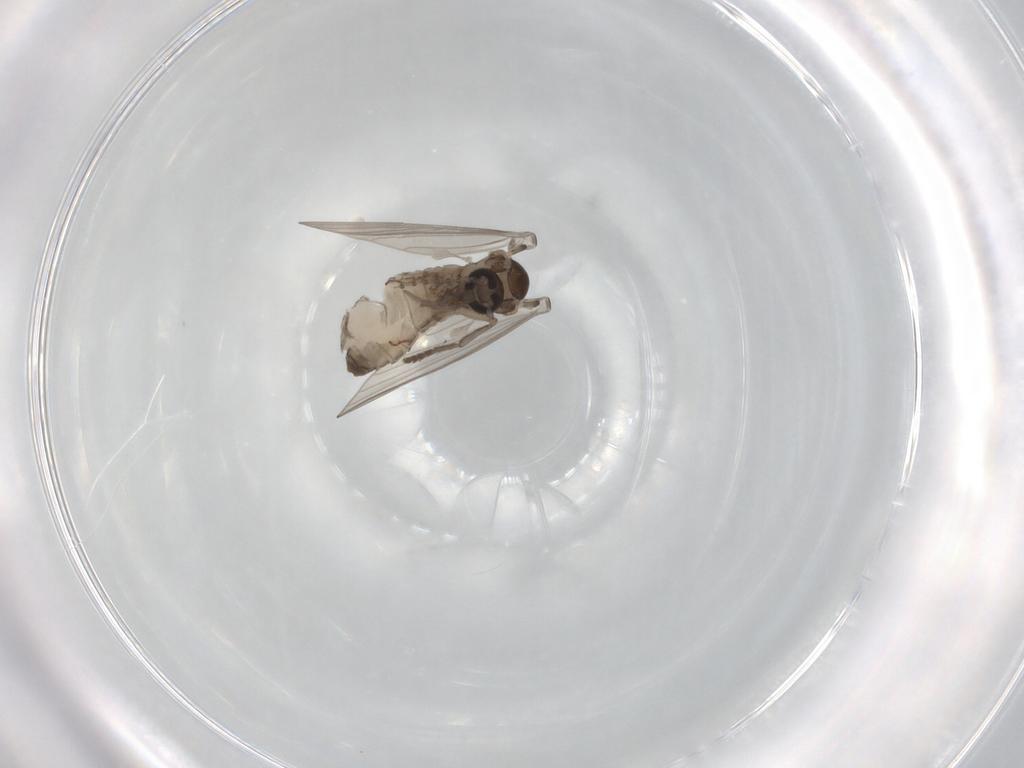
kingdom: Animalia
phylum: Arthropoda
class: Insecta
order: Diptera
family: Psychodidae
